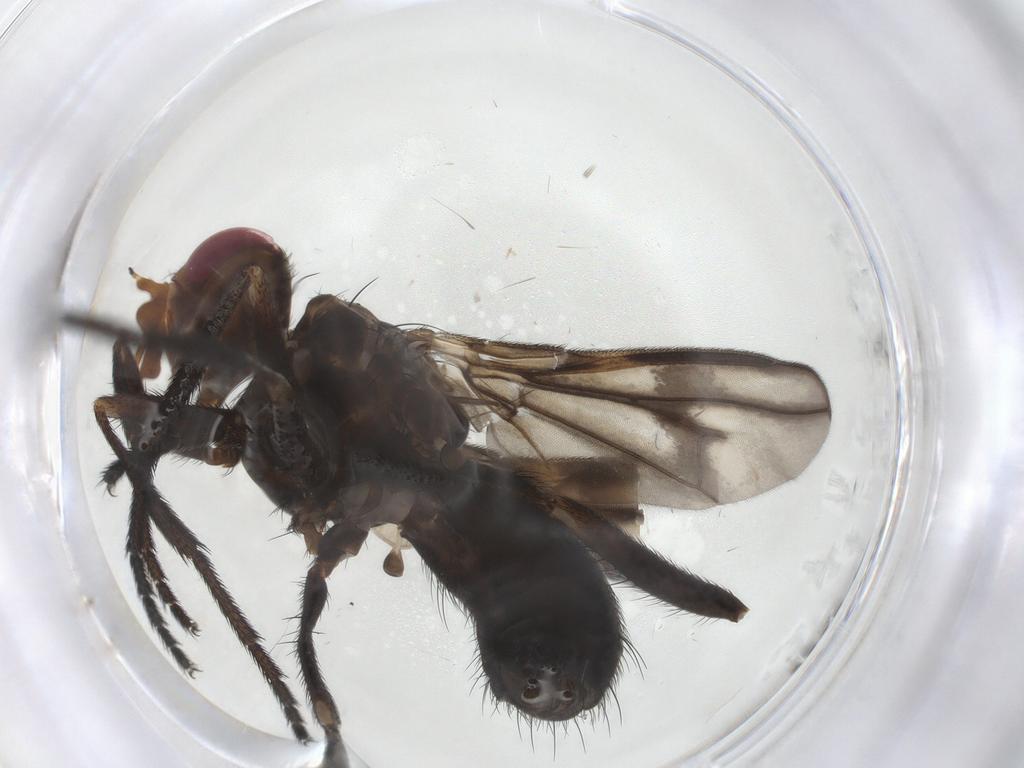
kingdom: Animalia
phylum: Arthropoda
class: Insecta
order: Diptera
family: Calliphoridae
